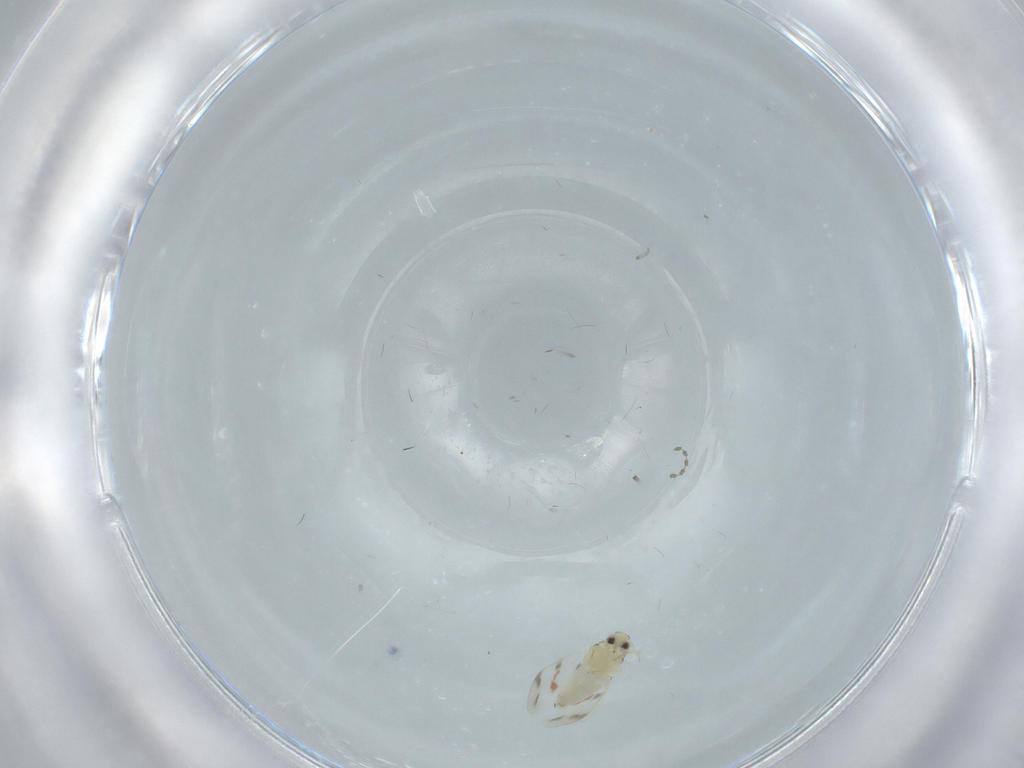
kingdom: Animalia
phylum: Arthropoda
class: Insecta
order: Hemiptera
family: Aleyrodidae
